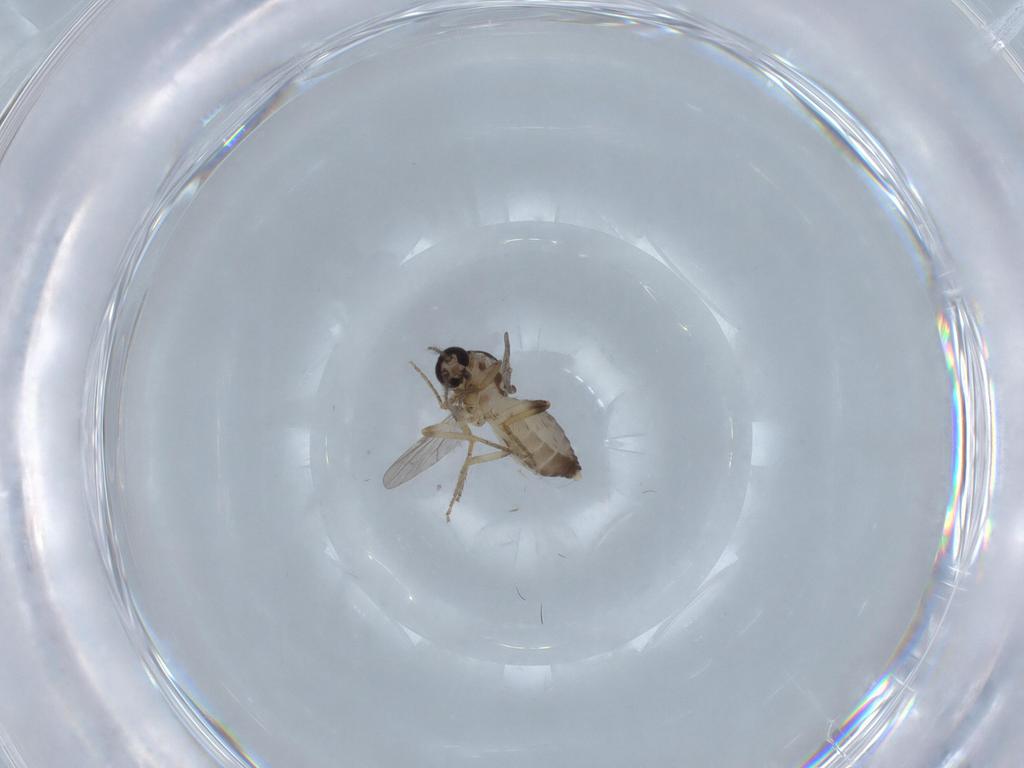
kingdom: Animalia
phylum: Arthropoda
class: Insecta
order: Diptera
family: Ceratopogonidae
